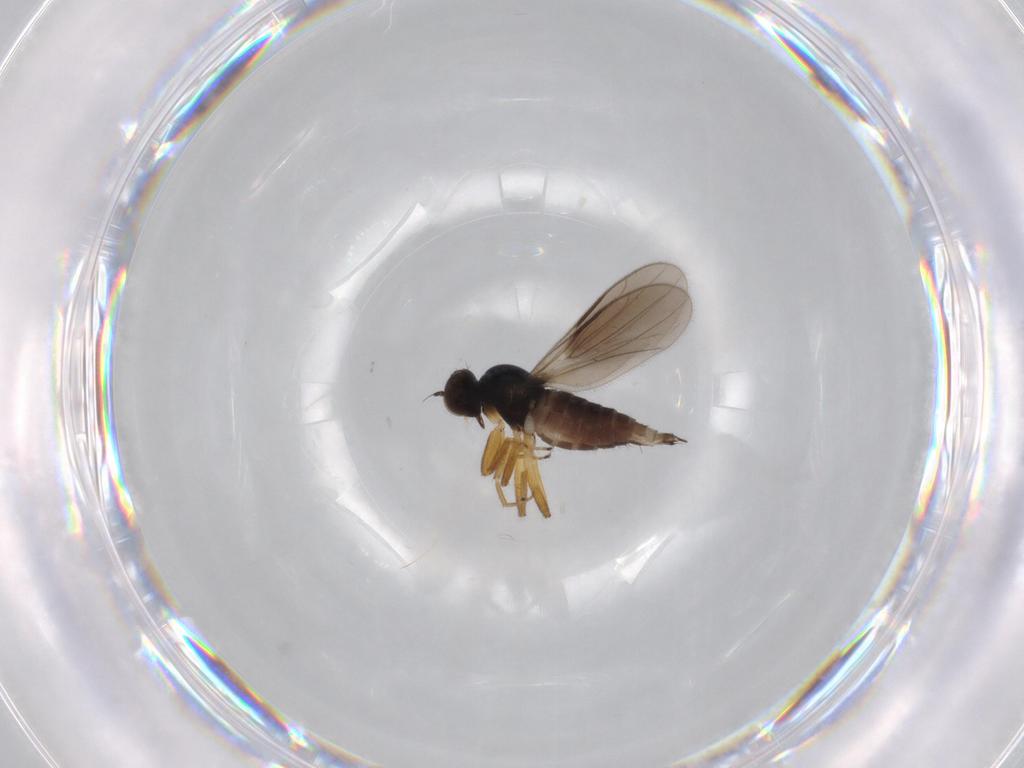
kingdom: Animalia
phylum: Arthropoda
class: Insecta
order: Diptera
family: Hybotidae
